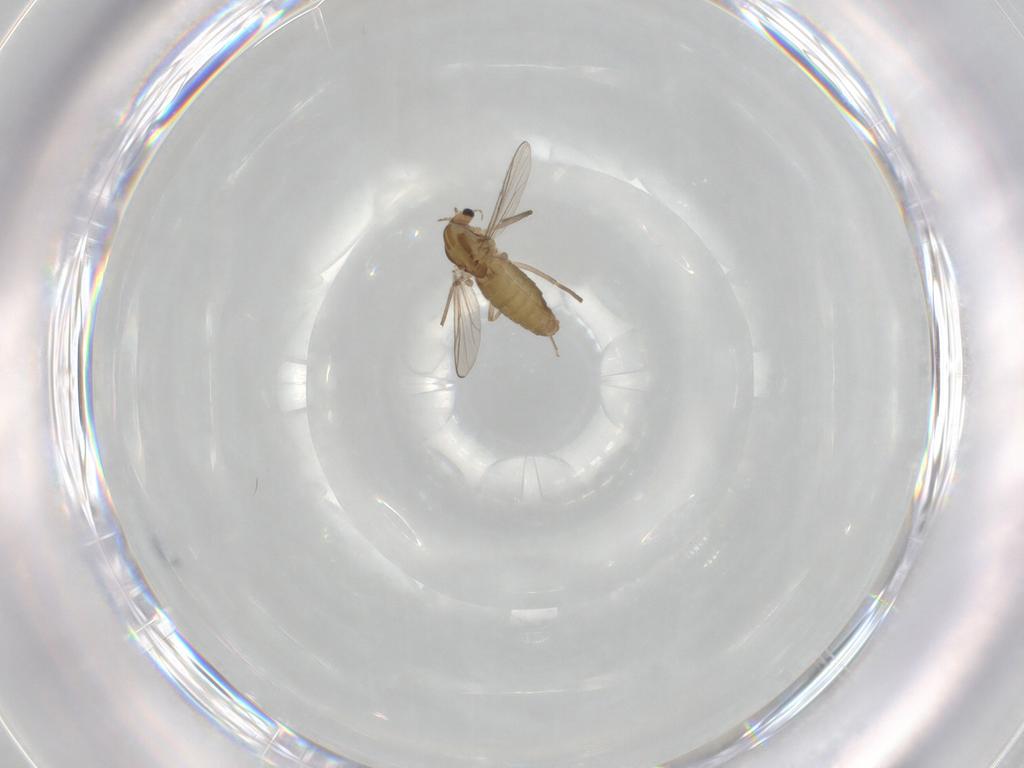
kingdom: Animalia
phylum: Arthropoda
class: Insecta
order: Diptera
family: Chironomidae
